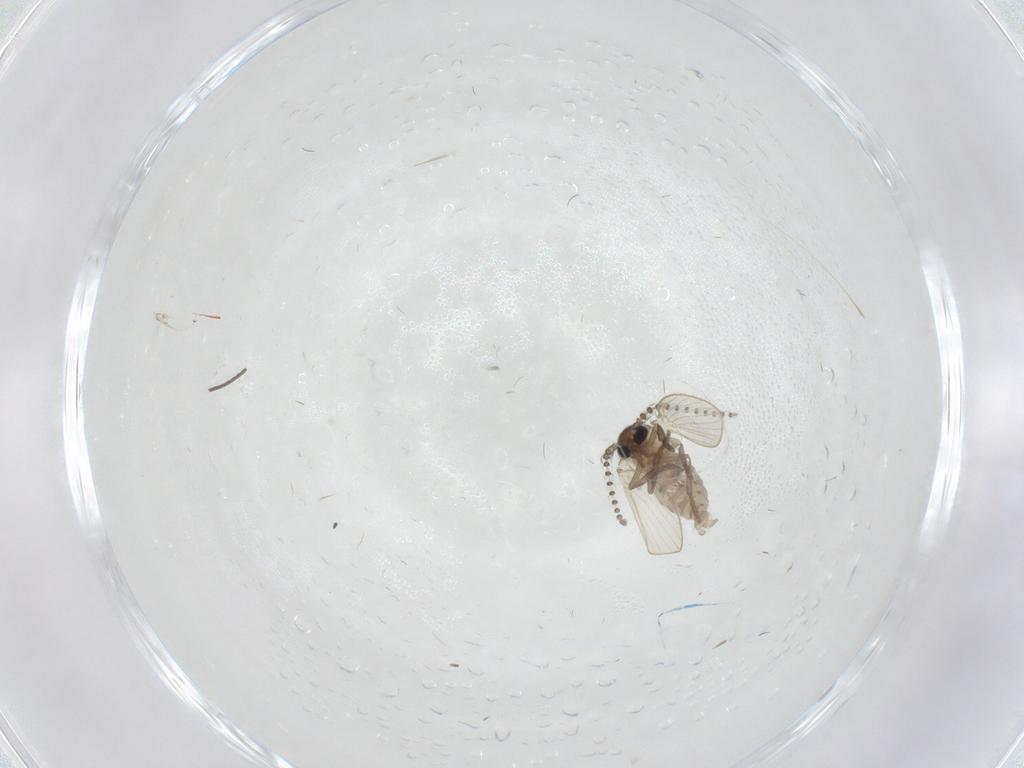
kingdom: Animalia
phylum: Arthropoda
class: Insecta
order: Diptera
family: Psychodidae
